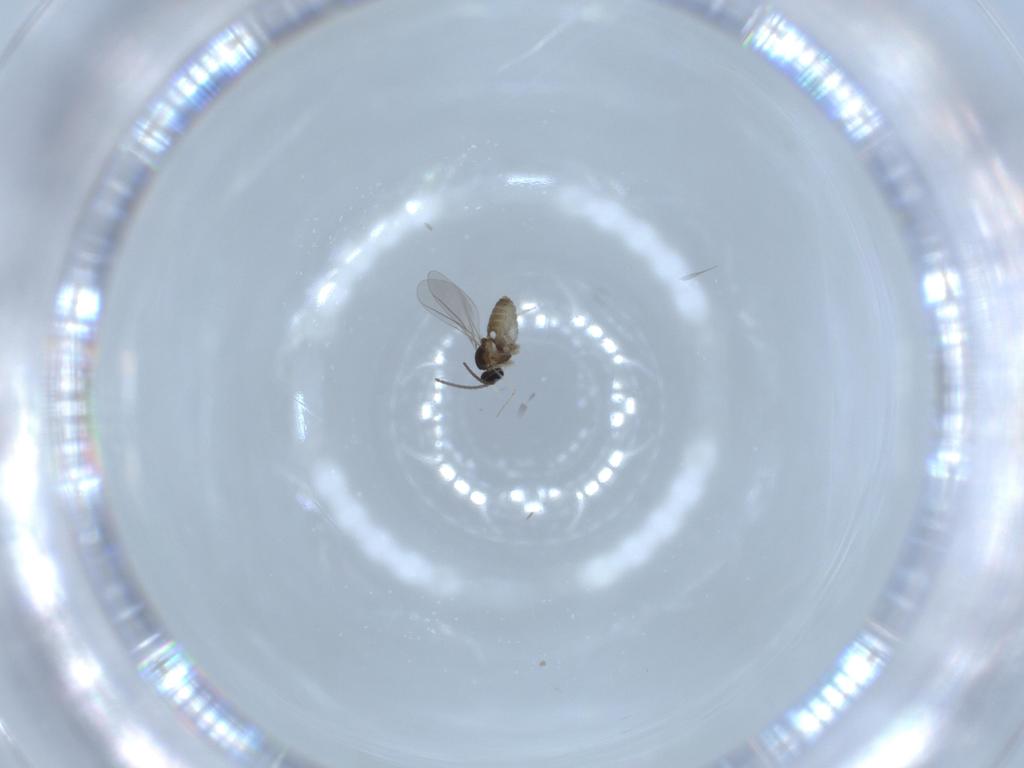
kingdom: Animalia
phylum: Arthropoda
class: Insecta
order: Diptera
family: Cecidomyiidae
